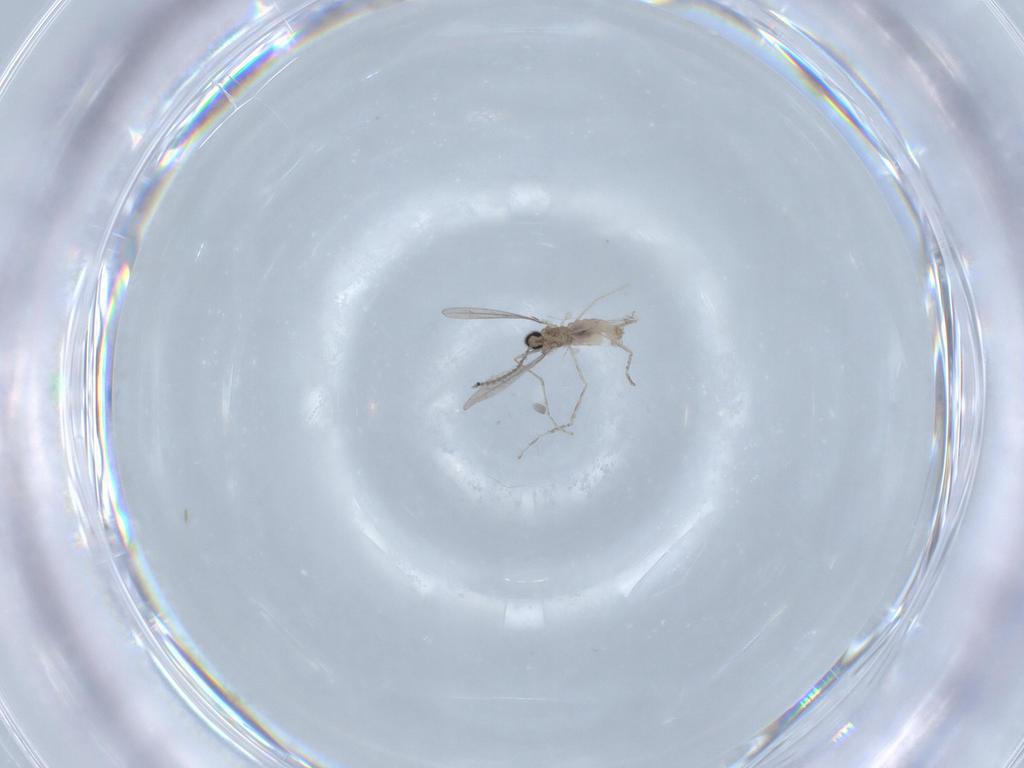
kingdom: Animalia
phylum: Arthropoda
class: Insecta
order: Diptera
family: Cecidomyiidae
